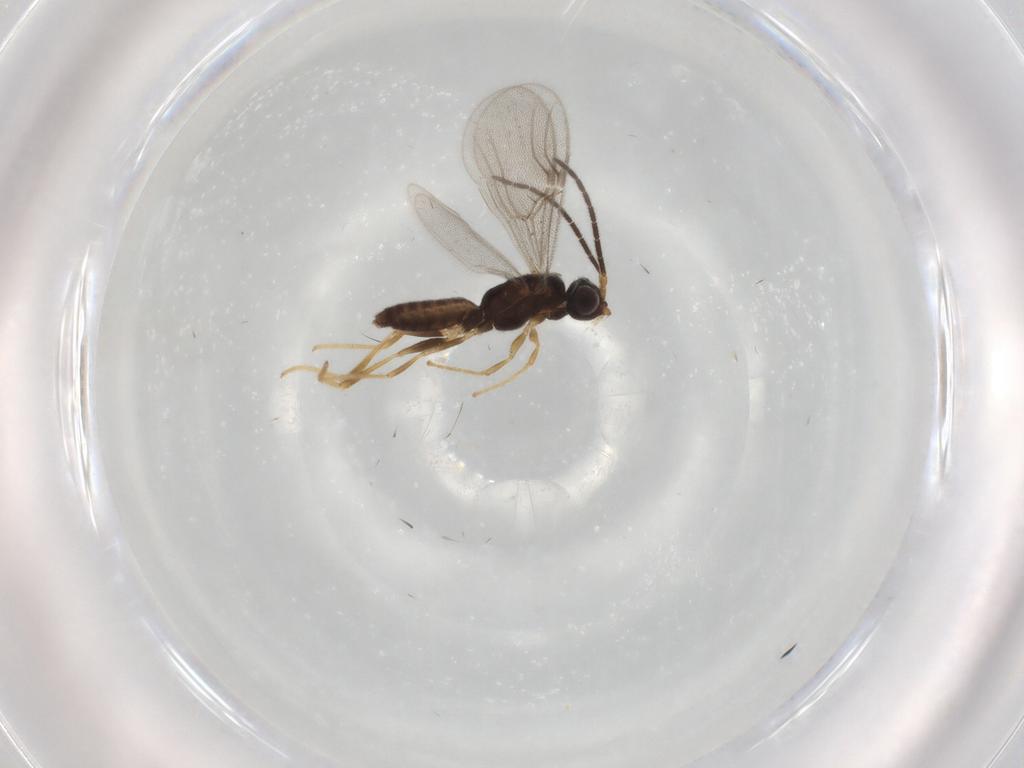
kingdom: Animalia
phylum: Arthropoda
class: Insecta
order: Hymenoptera
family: Dryinidae
